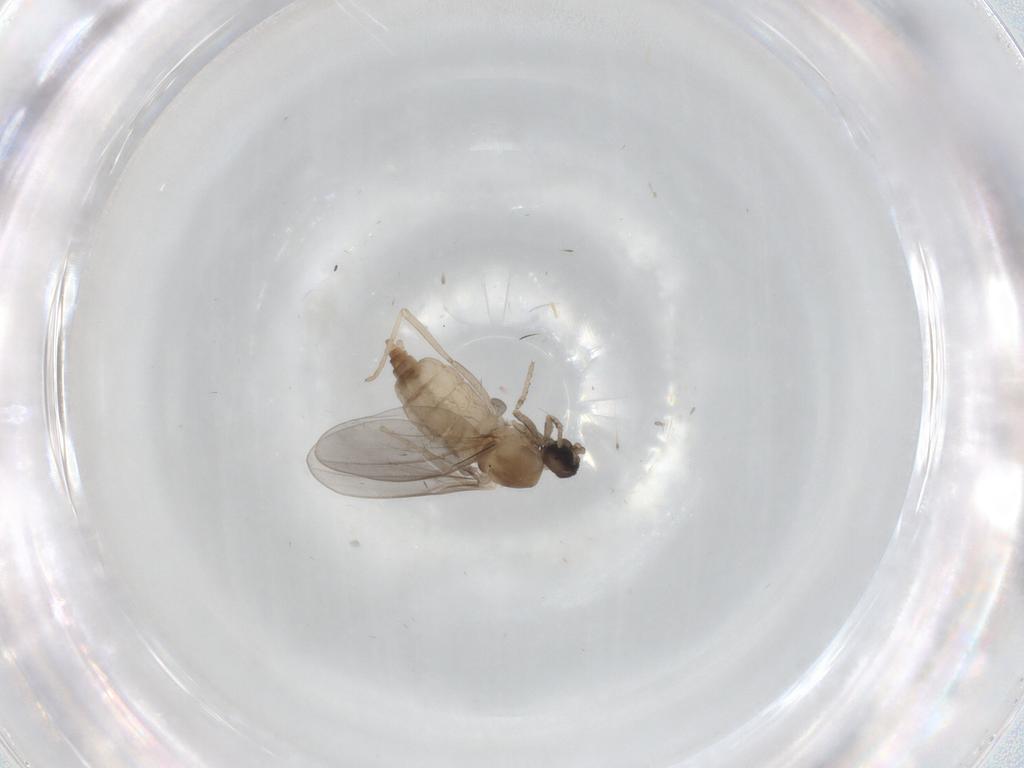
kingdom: Animalia
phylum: Arthropoda
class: Insecta
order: Diptera
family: Cecidomyiidae
